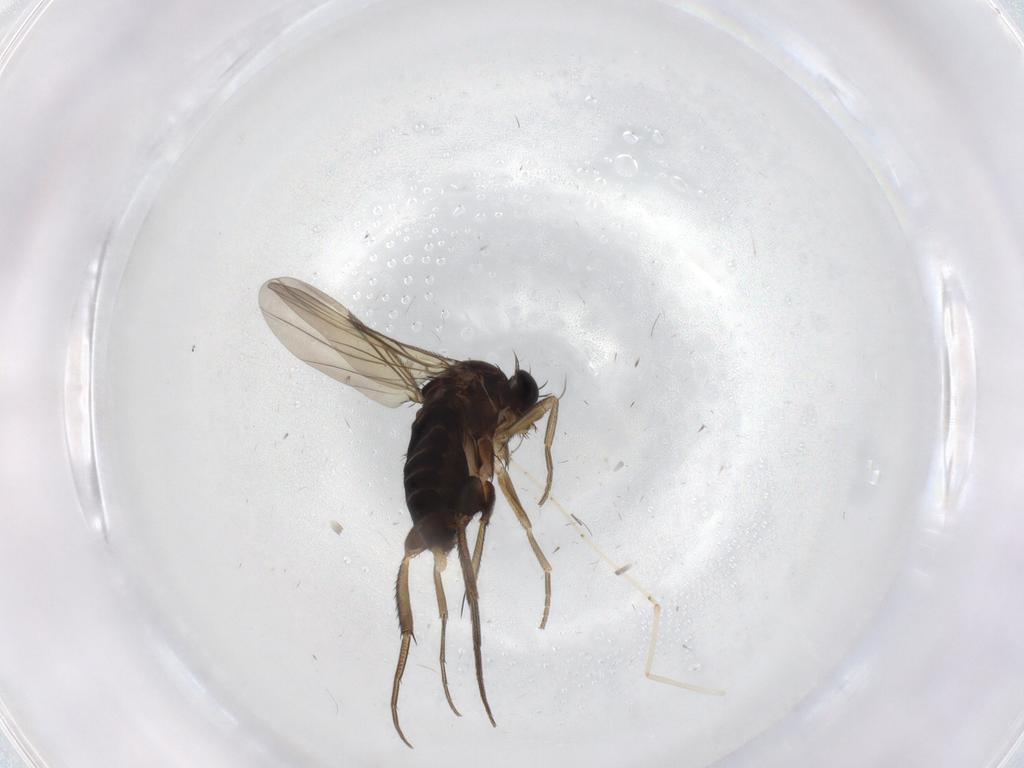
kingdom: Animalia
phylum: Arthropoda
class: Insecta
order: Diptera
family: Phoridae
